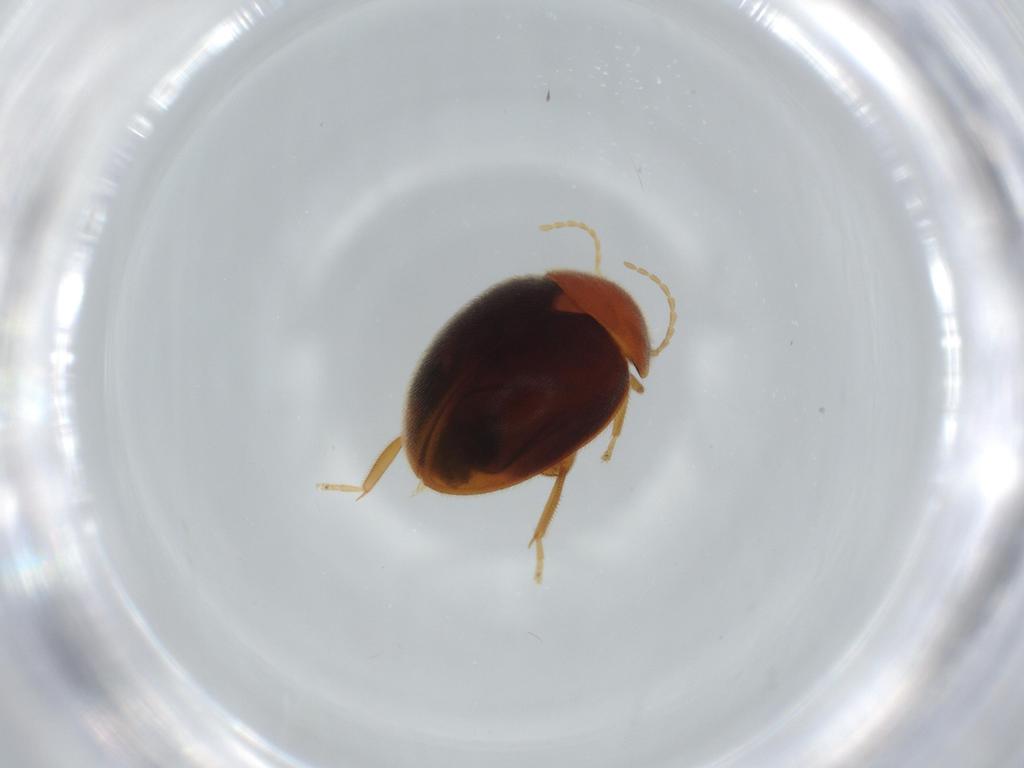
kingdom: Animalia
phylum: Arthropoda
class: Insecta
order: Coleoptera
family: Scirtidae
